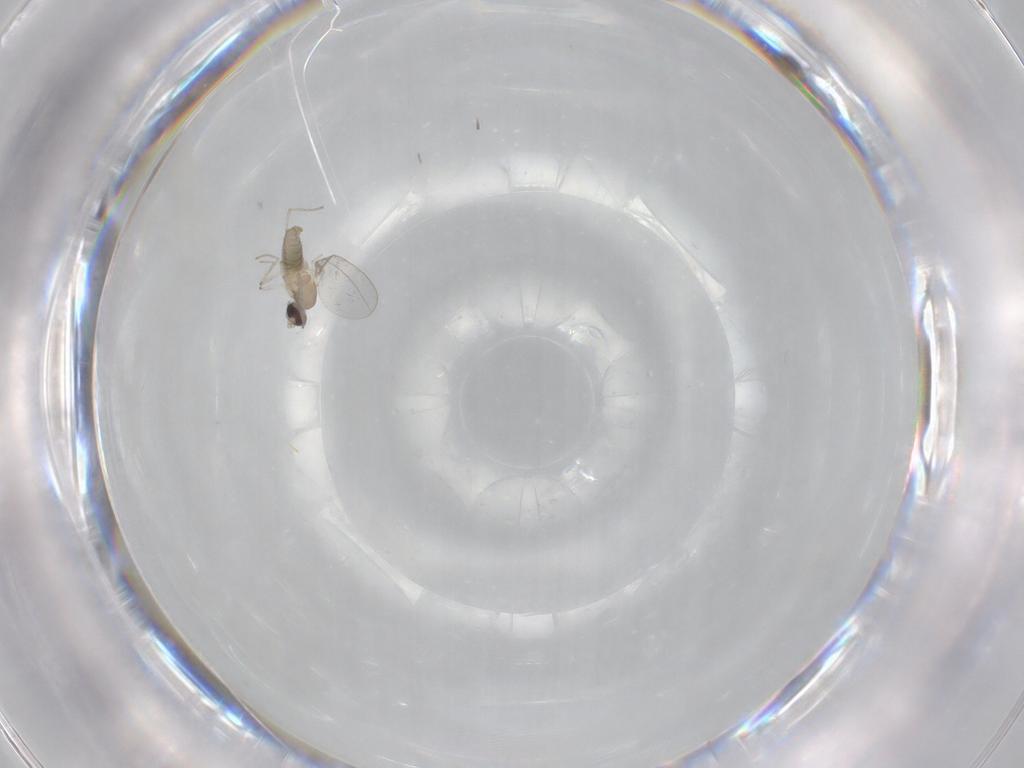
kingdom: Animalia
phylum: Arthropoda
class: Insecta
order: Diptera
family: Cecidomyiidae
